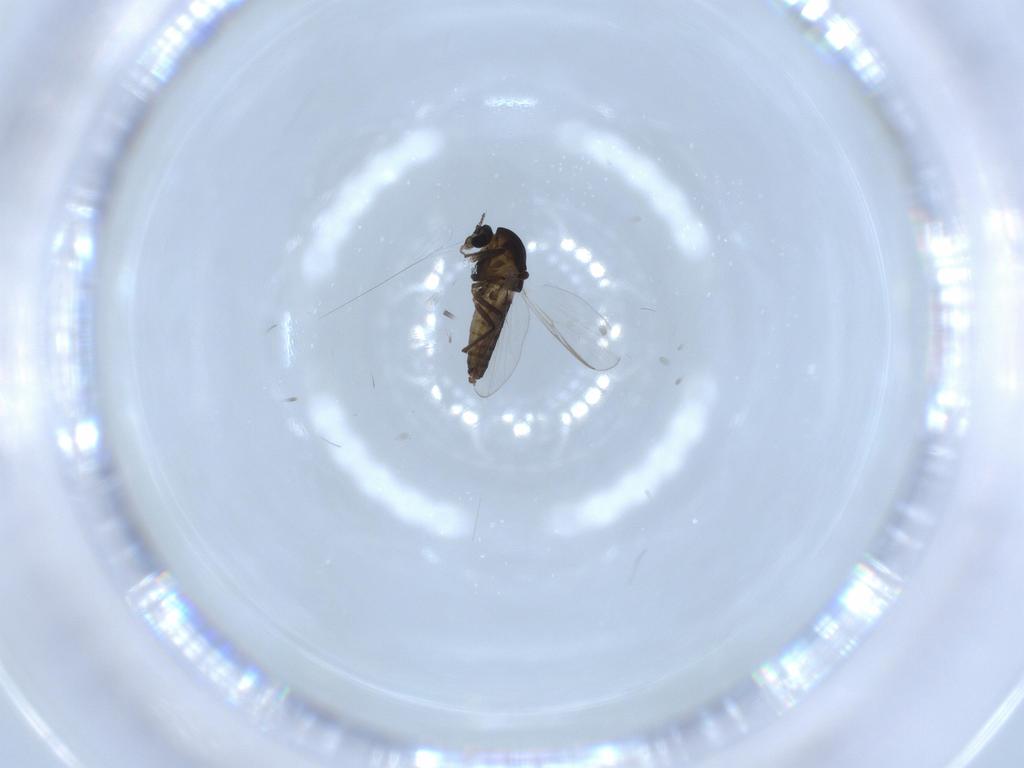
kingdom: Animalia
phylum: Arthropoda
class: Insecta
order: Diptera
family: Chironomidae
